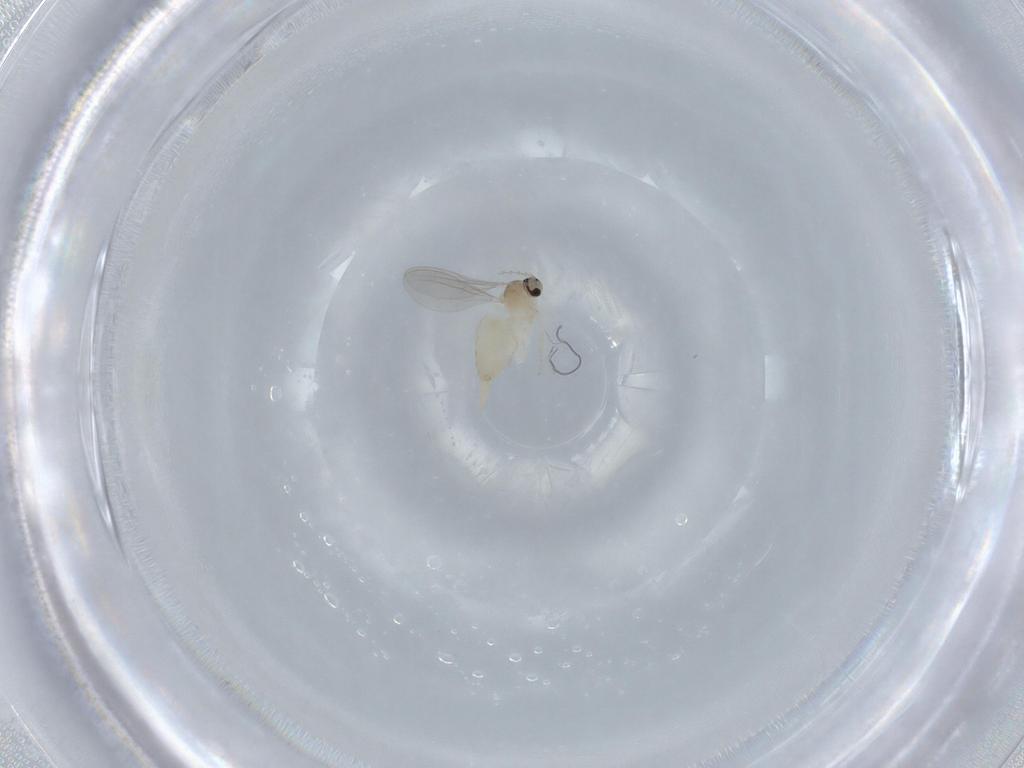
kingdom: Animalia
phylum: Arthropoda
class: Insecta
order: Diptera
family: Cecidomyiidae
